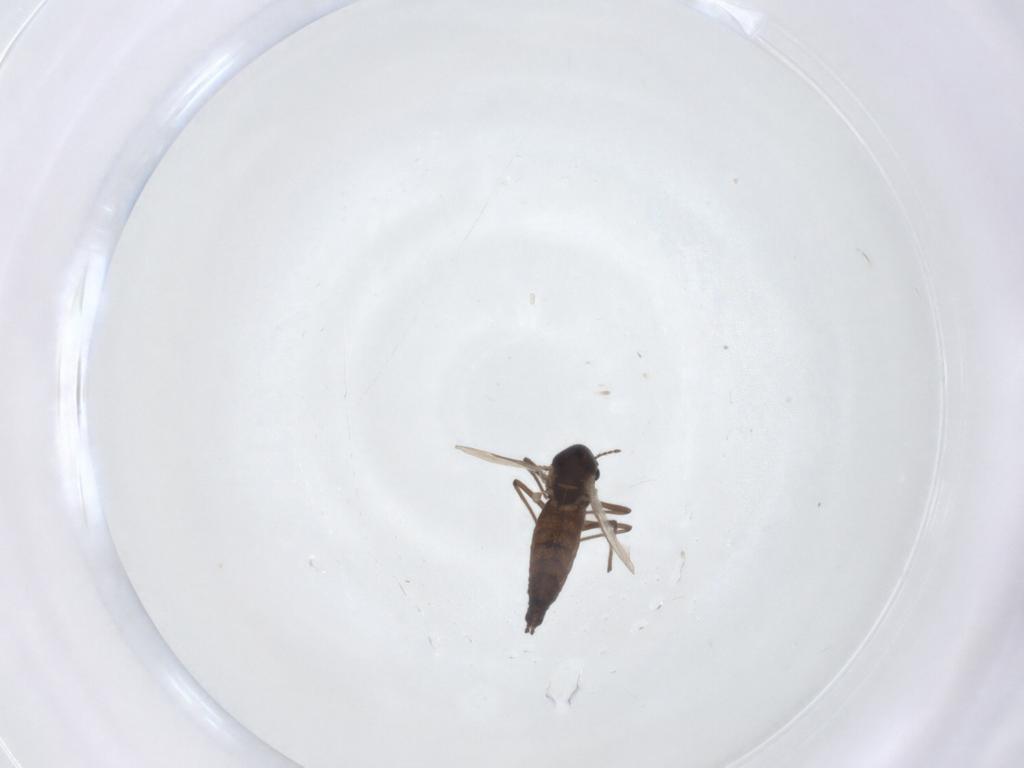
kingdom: Animalia
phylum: Arthropoda
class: Insecta
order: Diptera
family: Chironomidae
